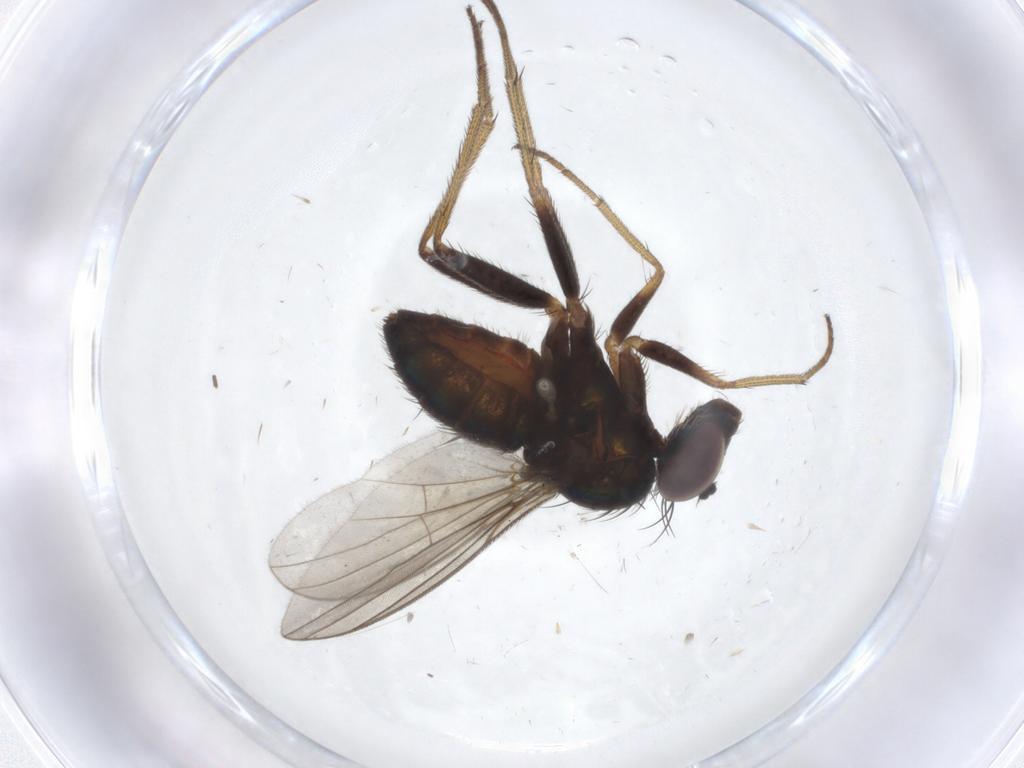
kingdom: Animalia
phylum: Arthropoda
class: Insecta
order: Diptera
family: Dolichopodidae
